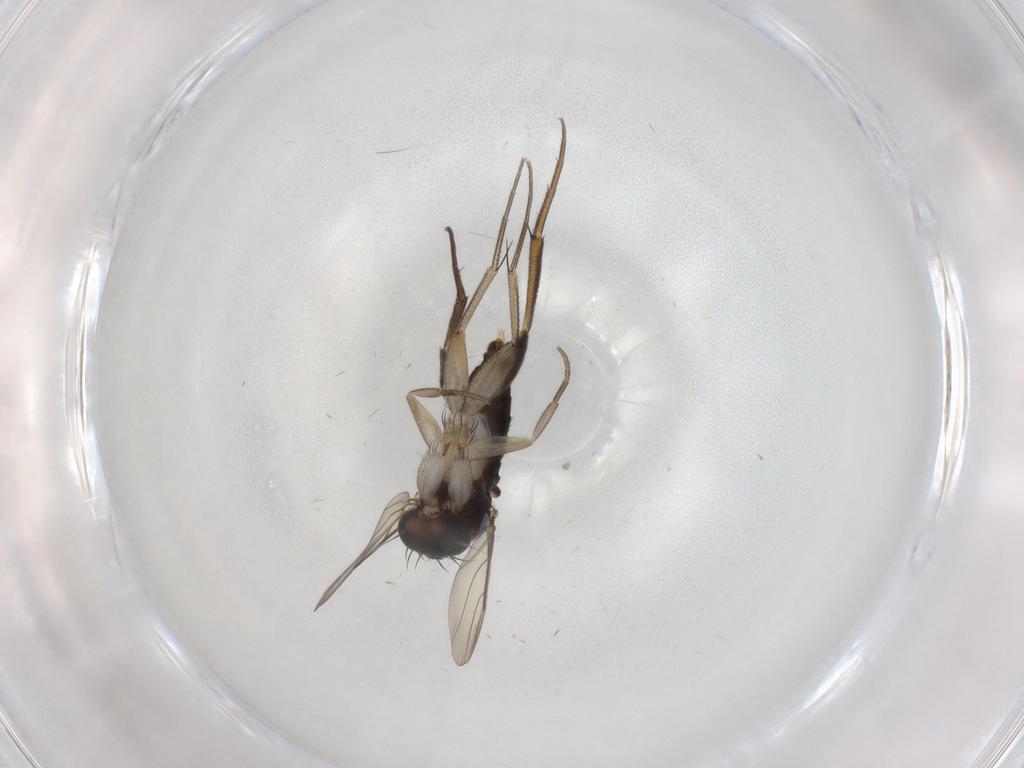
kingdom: Animalia
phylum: Arthropoda
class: Insecta
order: Diptera
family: Phoridae
